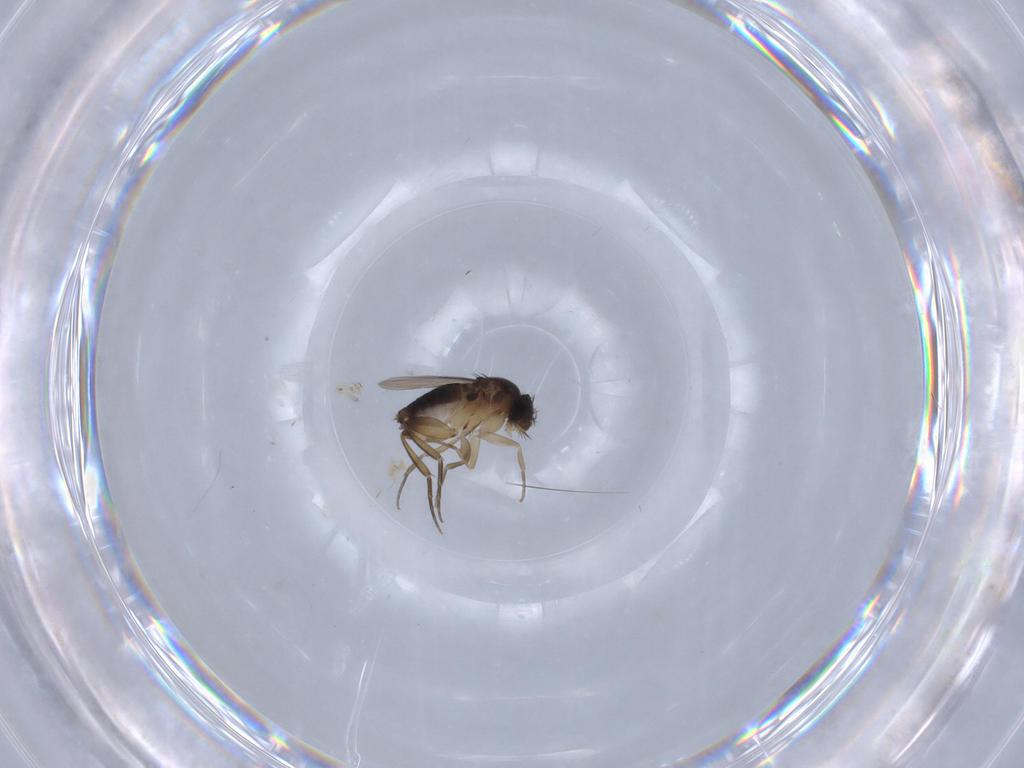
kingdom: Animalia
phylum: Arthropoda
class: Insecta
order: Diptera
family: Phoridae
